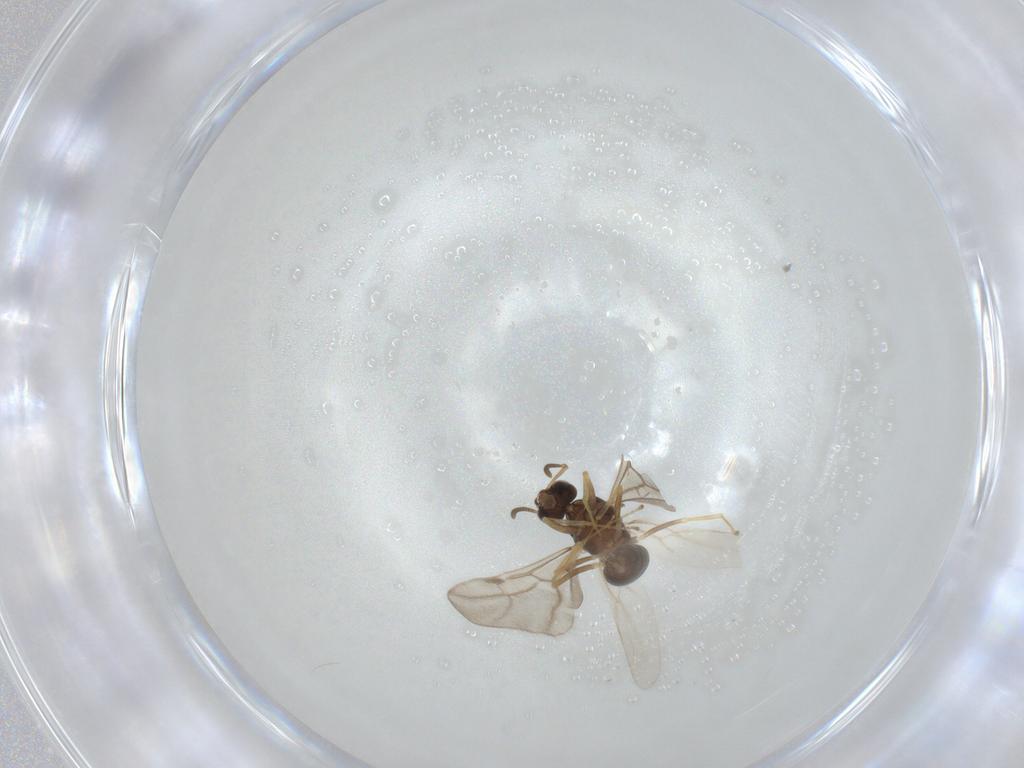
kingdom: Animalia
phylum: Arthropoda
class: Insecta
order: Hymenoptera
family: Formicidae
